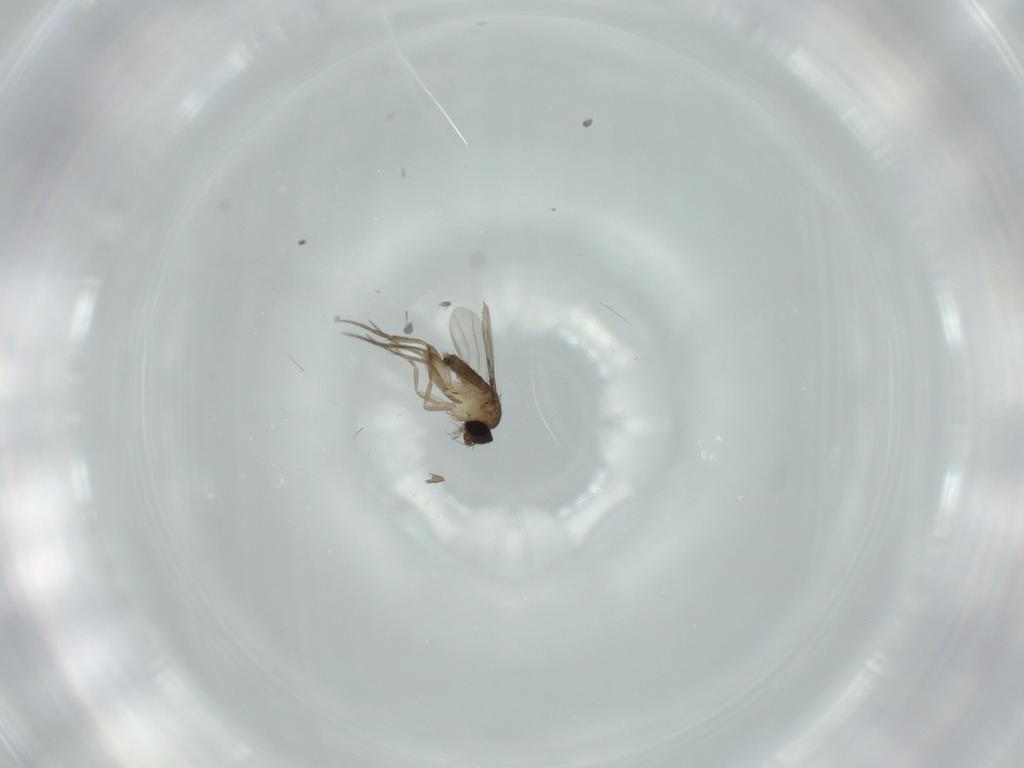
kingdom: Animalia
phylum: Arthropoda
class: Insecta
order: Diptera
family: Phoridae
